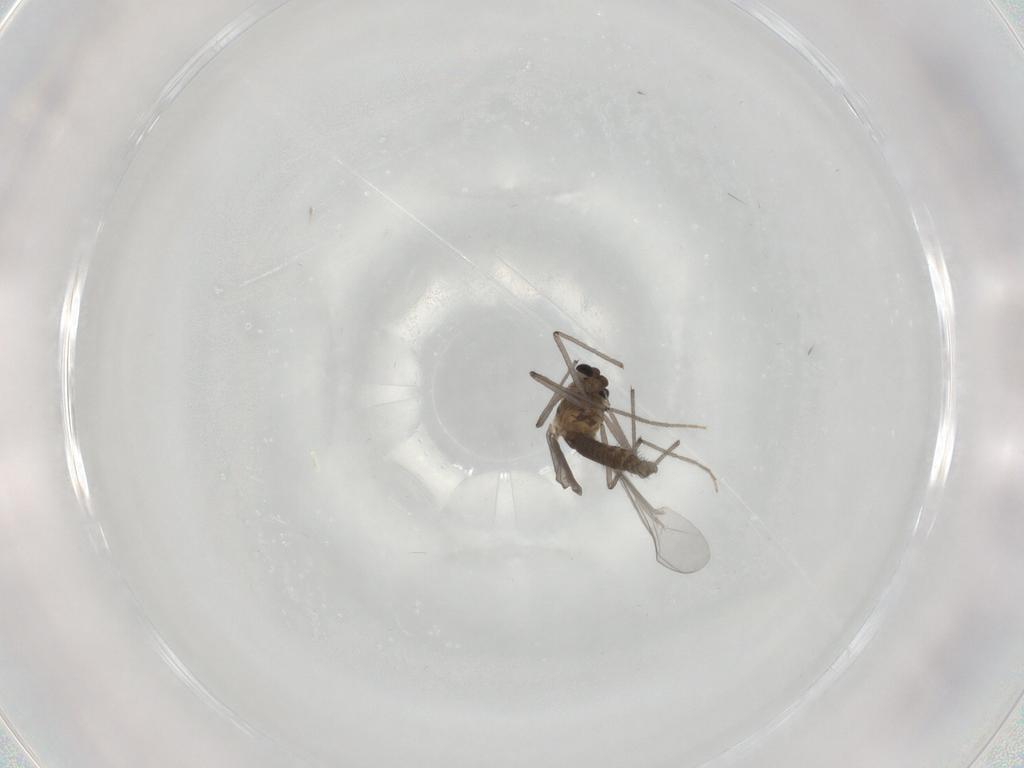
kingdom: Animalia
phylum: Arthropoda
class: Insecta
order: Diptera
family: Chironomidae
